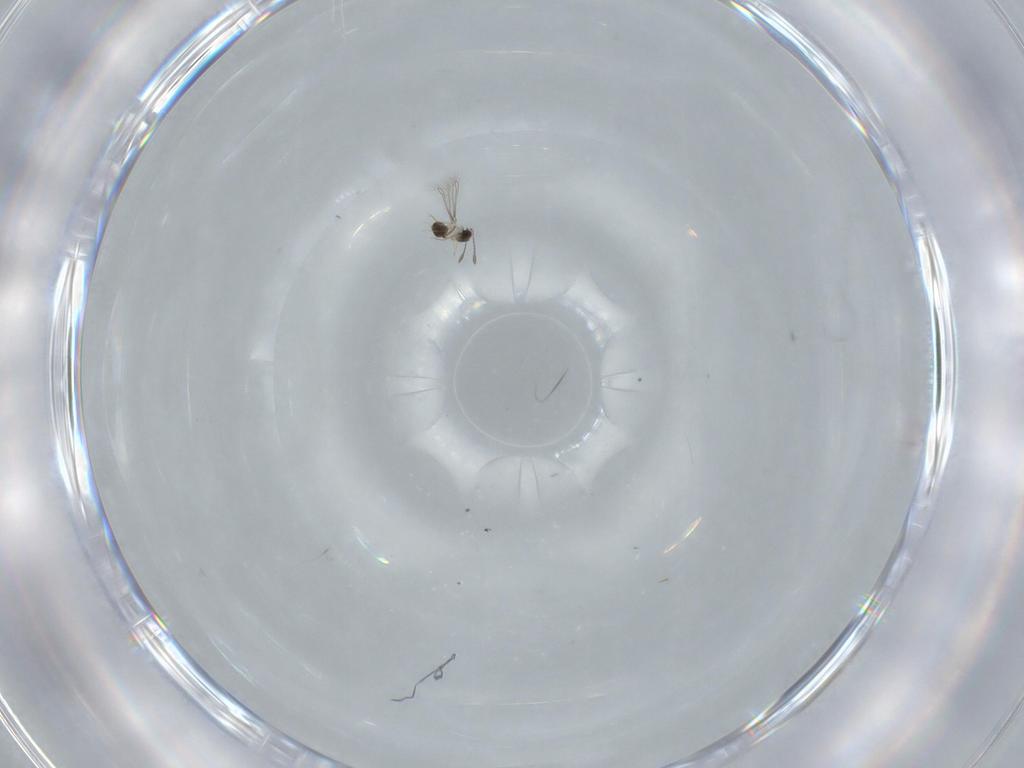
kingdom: Animalia
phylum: Arthropoda
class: Insecta
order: Hymenoptera
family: Mymaridae
